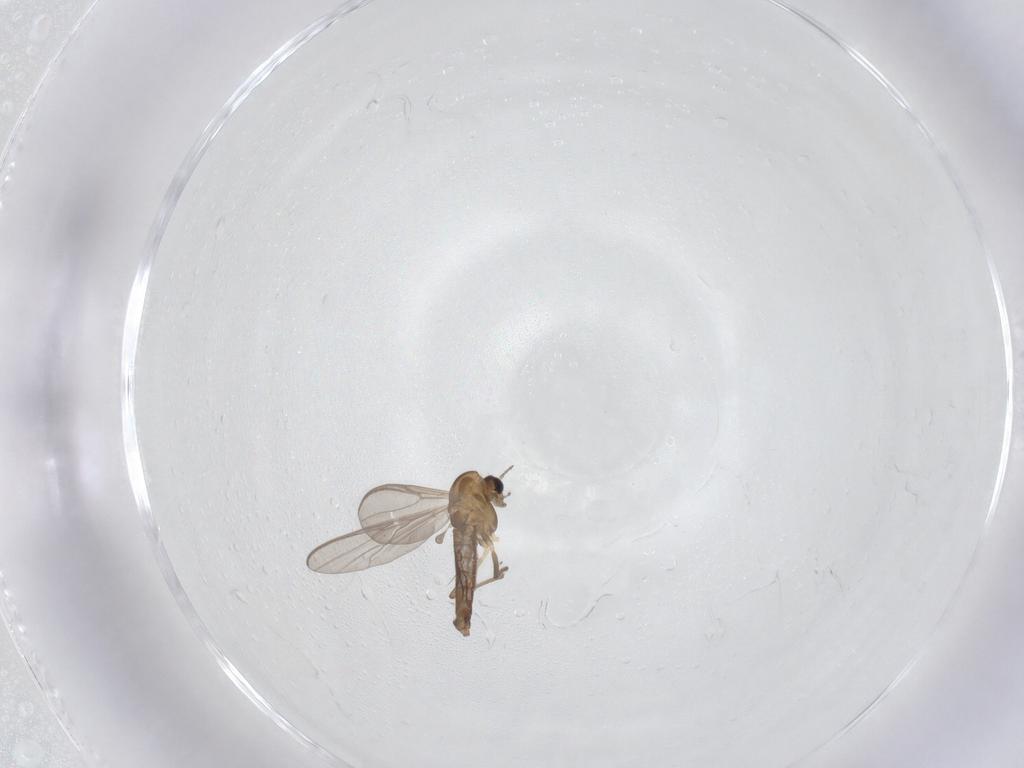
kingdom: Animalia
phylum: Arthropoda
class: Insecta
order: Diptera
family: Chironomidae
